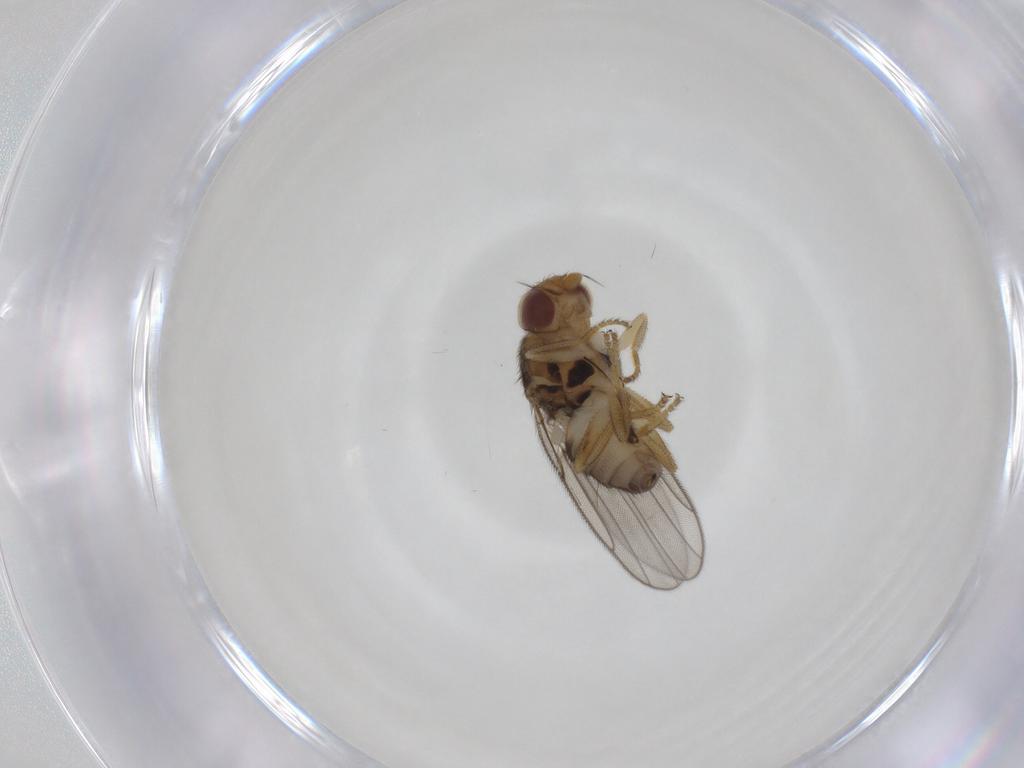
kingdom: Animalia
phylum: Arthropoda
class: Insecta
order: Diptera
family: Chloropidae
